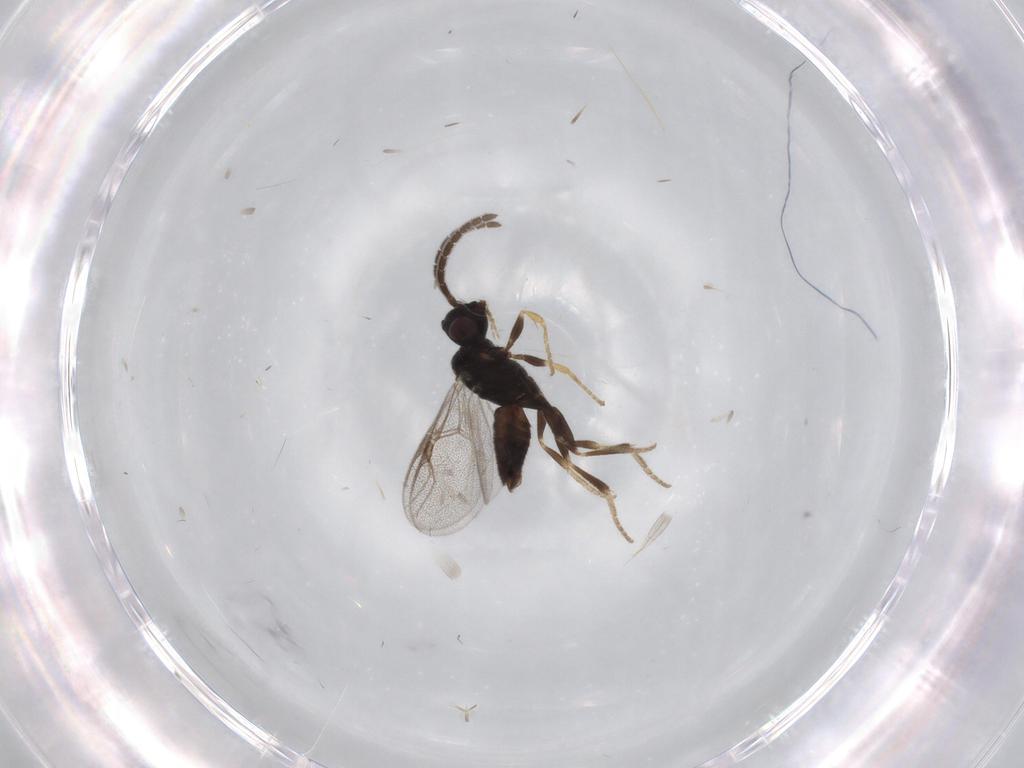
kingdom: Animalia
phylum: Arthropoda
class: Insecta
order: Hymenoptera
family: Dryinidae
